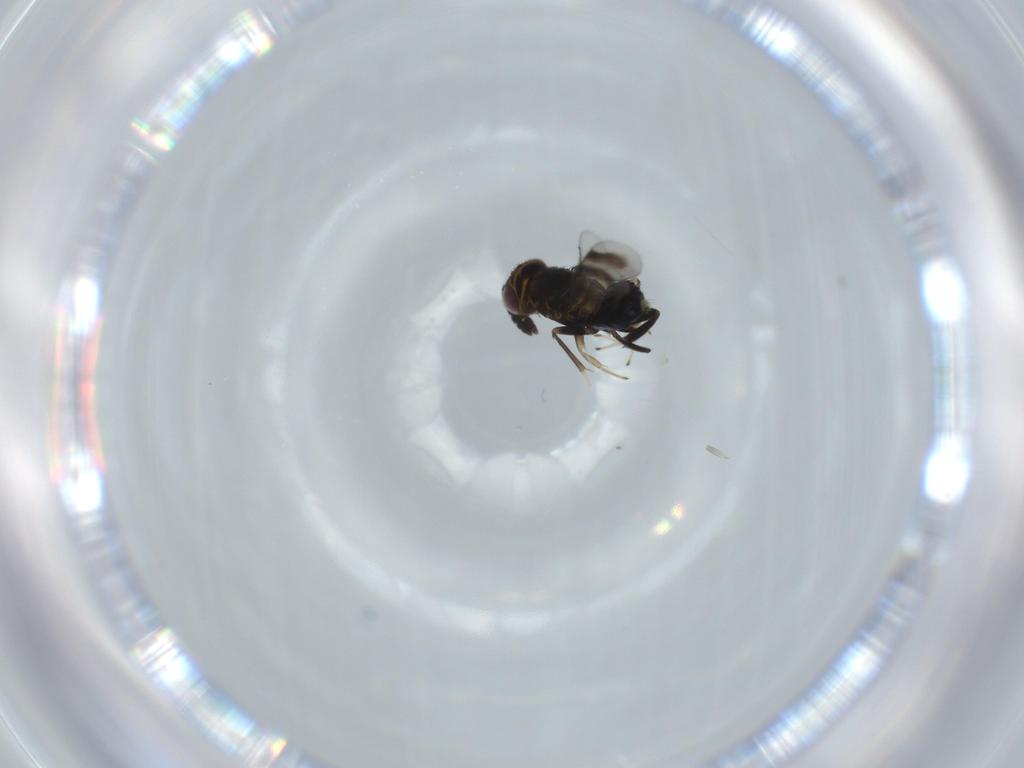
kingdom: Animalia
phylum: Arthropoda
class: Insecta
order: Hymenoptera
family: Aphelinidae
